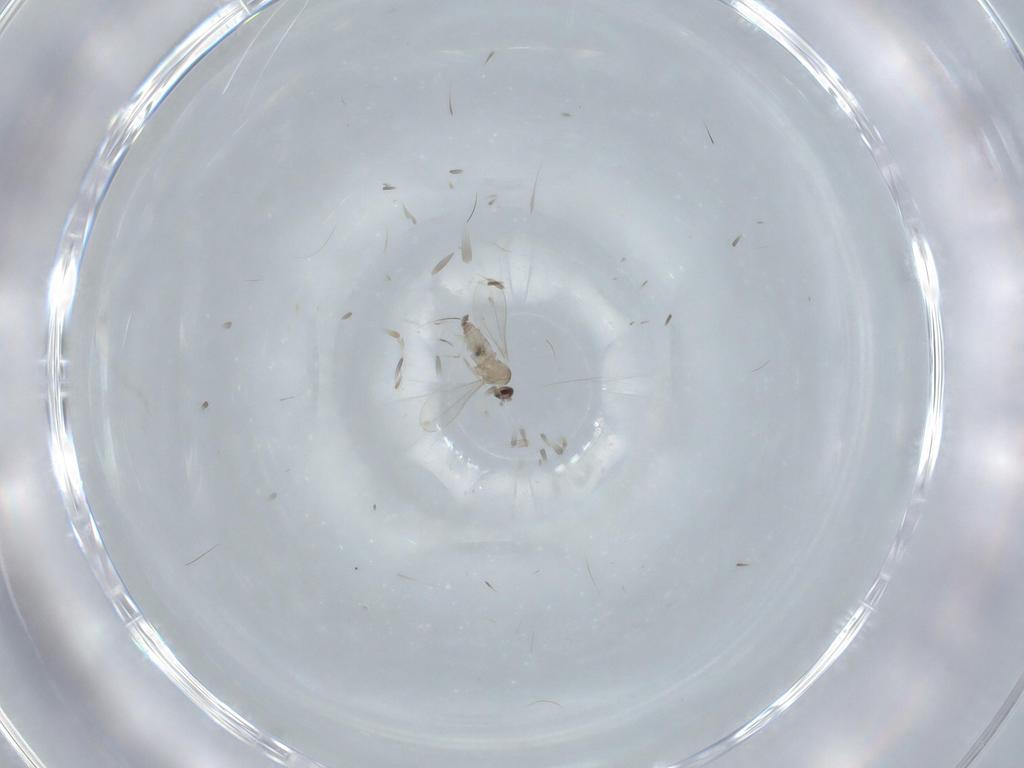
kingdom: Animalia
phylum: Arthropoda
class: Insecta
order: Diptera
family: Cecidomyiidae
